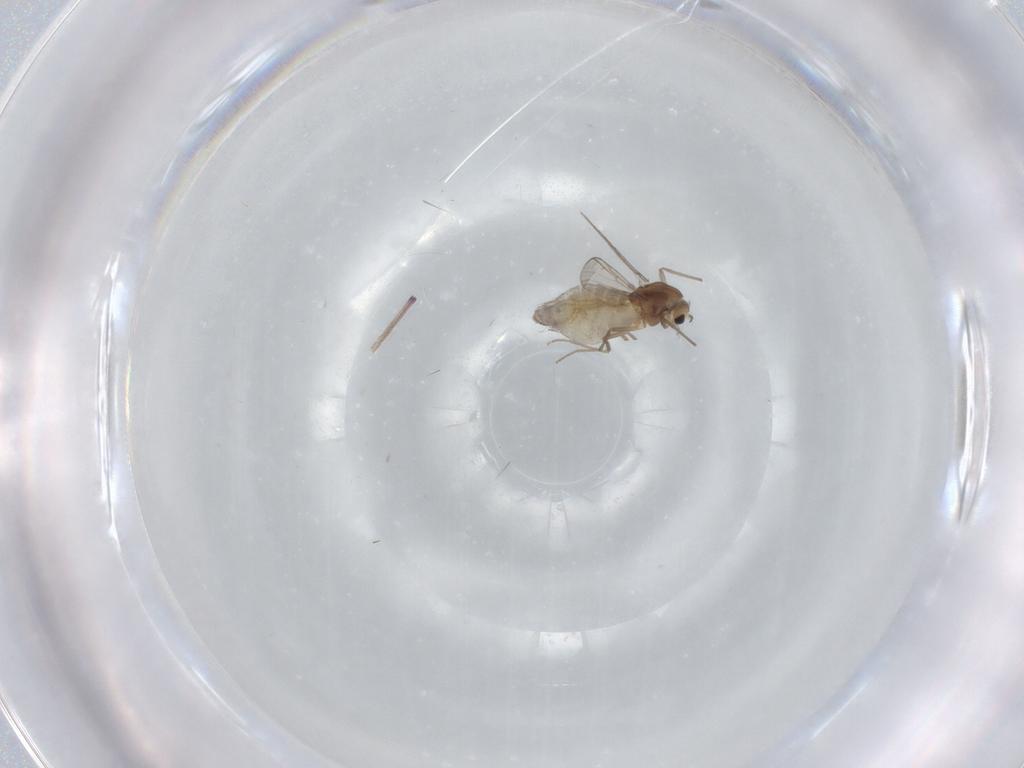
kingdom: Animalia
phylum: Arthropoda
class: Insecta
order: Diptera
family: Chironomidae
